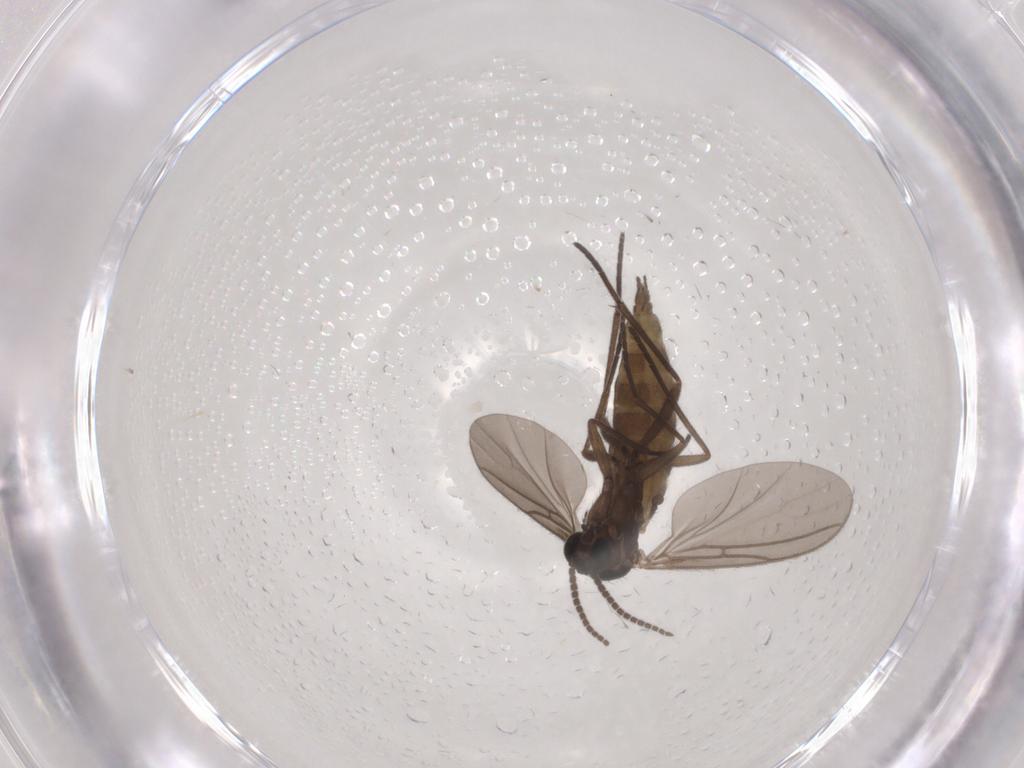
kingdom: Animalia
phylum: Arthropoda
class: Insecta
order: Diptera
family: Sciaridae
